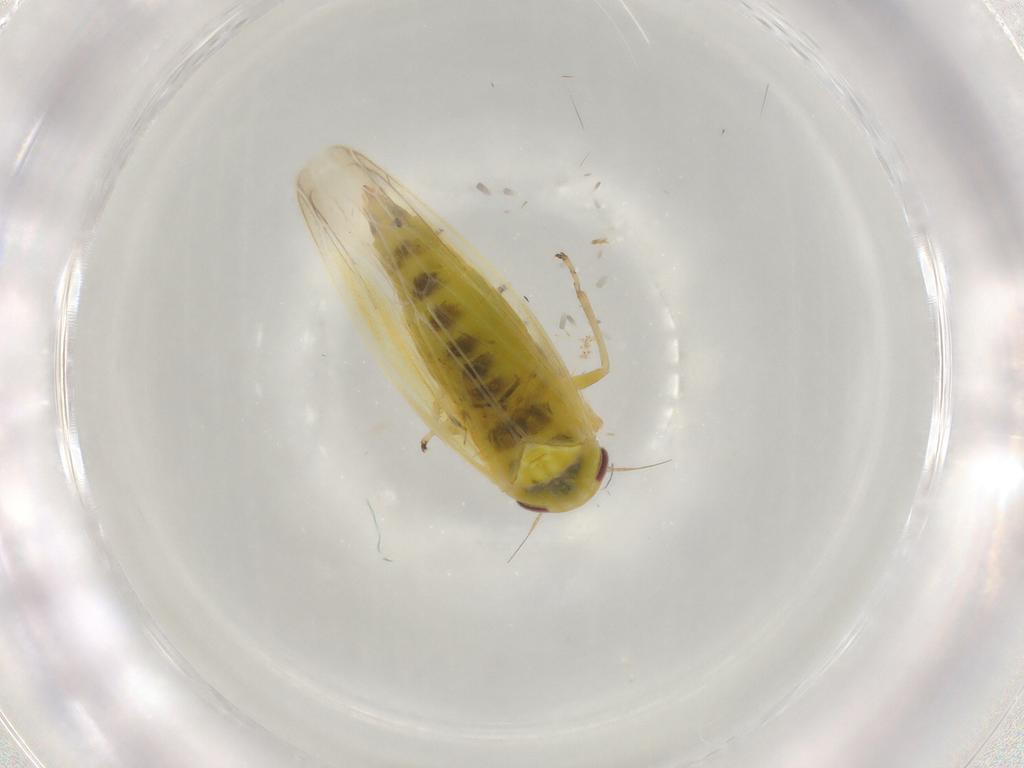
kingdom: Animalia
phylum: Arthropoda
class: Insecta
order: Hemiptera
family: Cicadellidae
